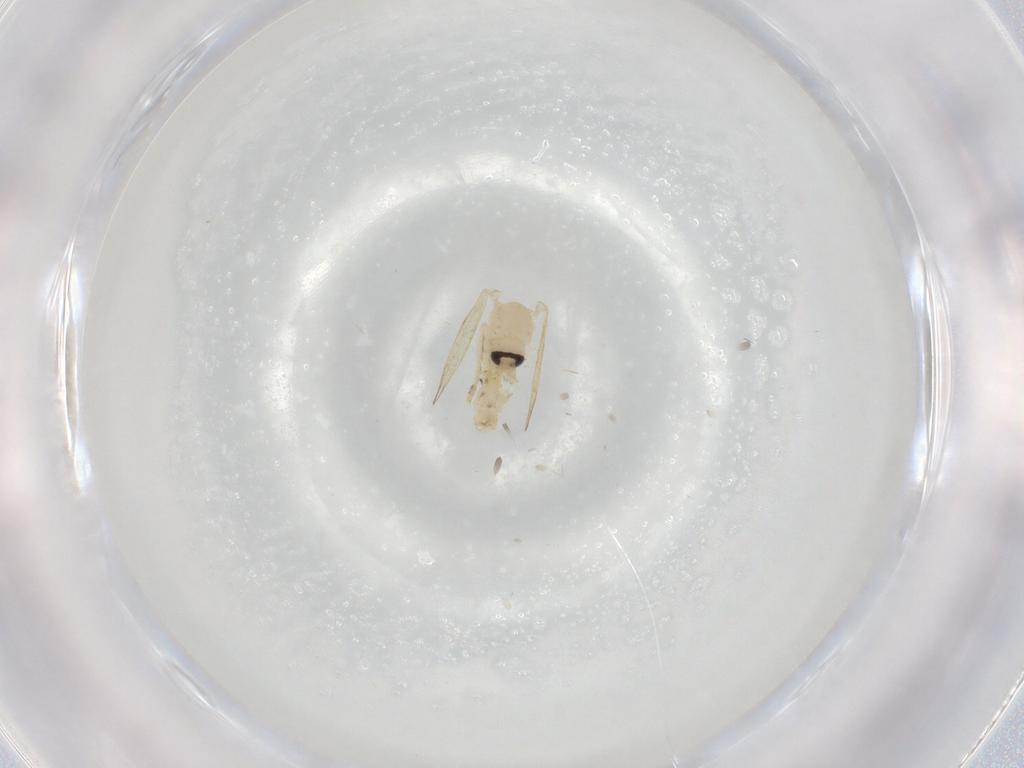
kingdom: Animalia
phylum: Arthropoda
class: Insecta
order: Diptera
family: Psychodidae
